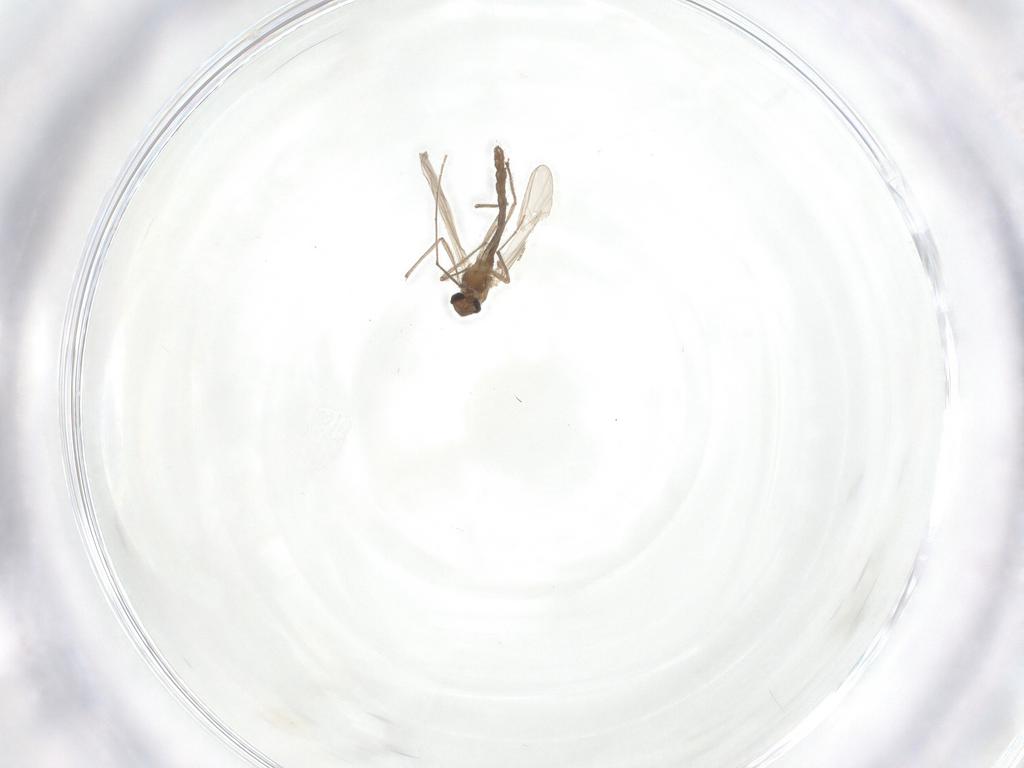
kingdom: Animalia
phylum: Arthropoda
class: Insecta
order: Diptera
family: Chironomidae
